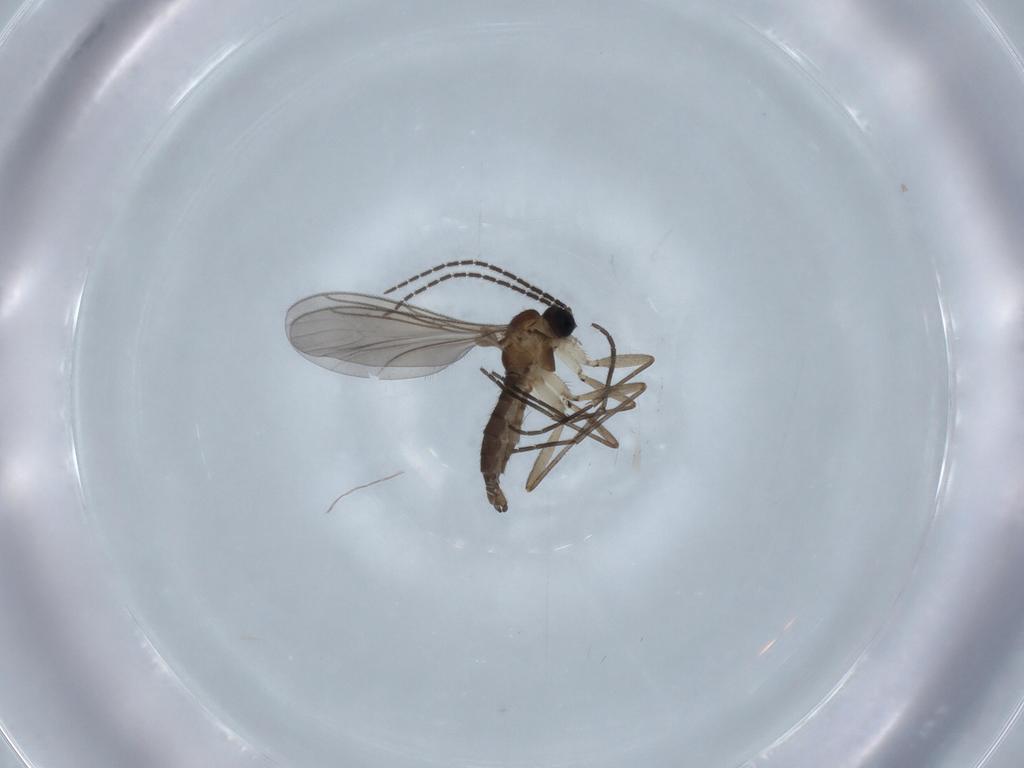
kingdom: Animalia
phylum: Arthropoda
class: Insecta
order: Diptera
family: Sciaridae
